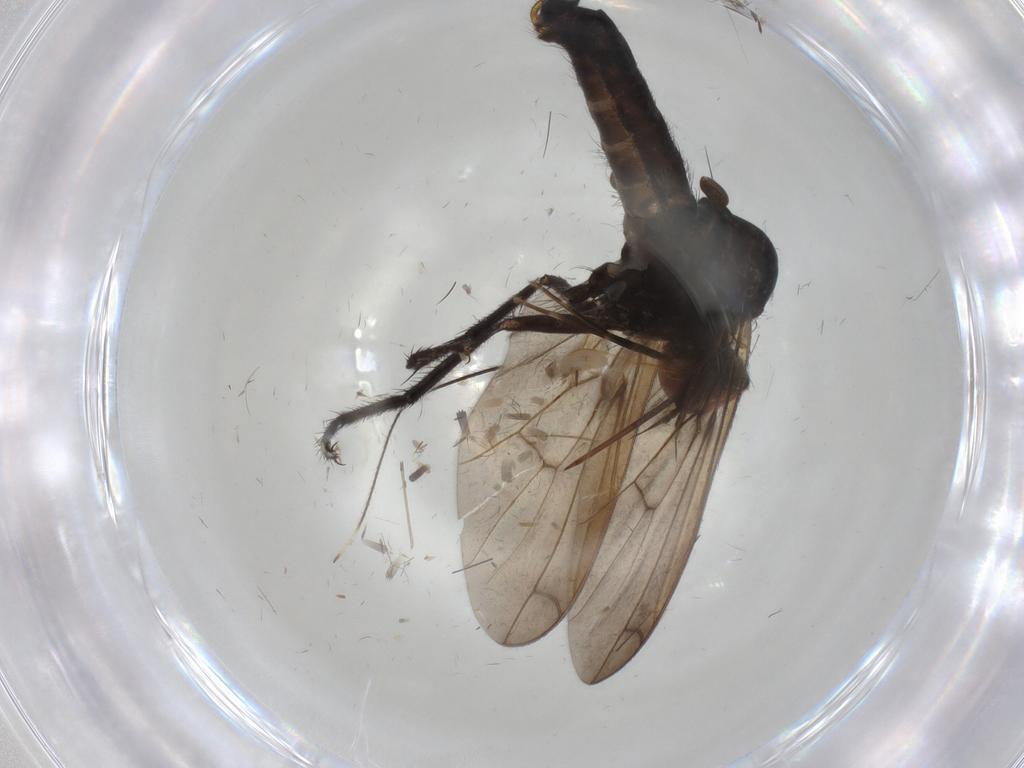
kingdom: Animalia
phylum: Arthropoda
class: Insecta
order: Diptera
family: Empididae
